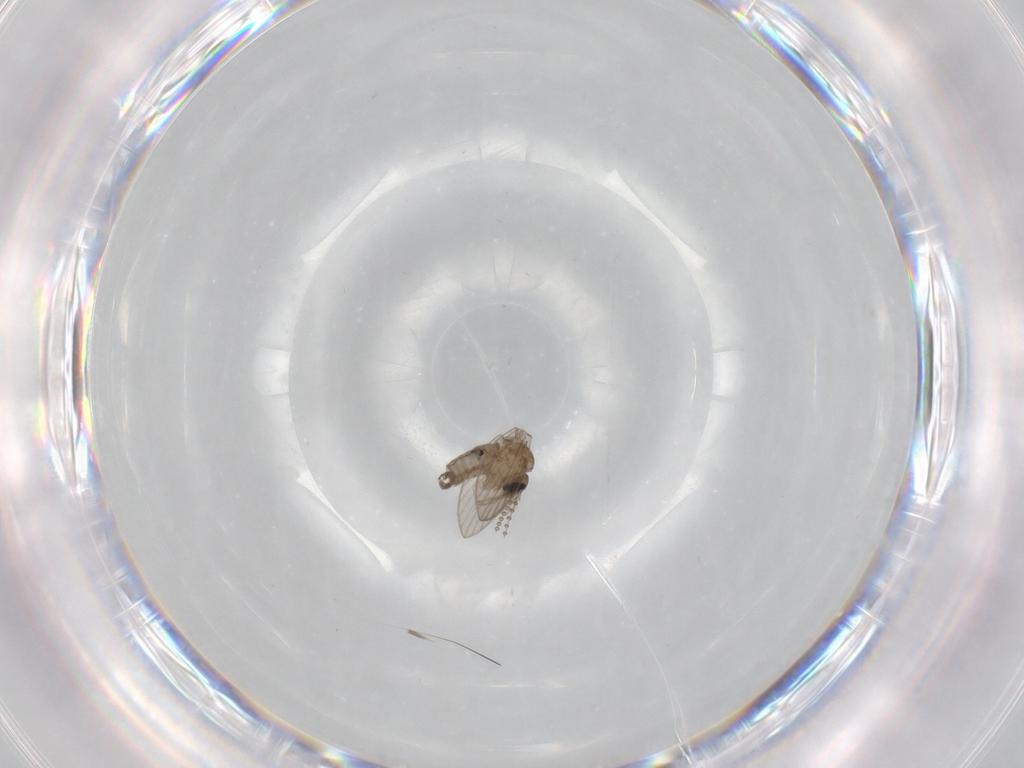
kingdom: Animalia
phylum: Arthropoda
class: Insecta
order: Diptera
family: Psychodidae
